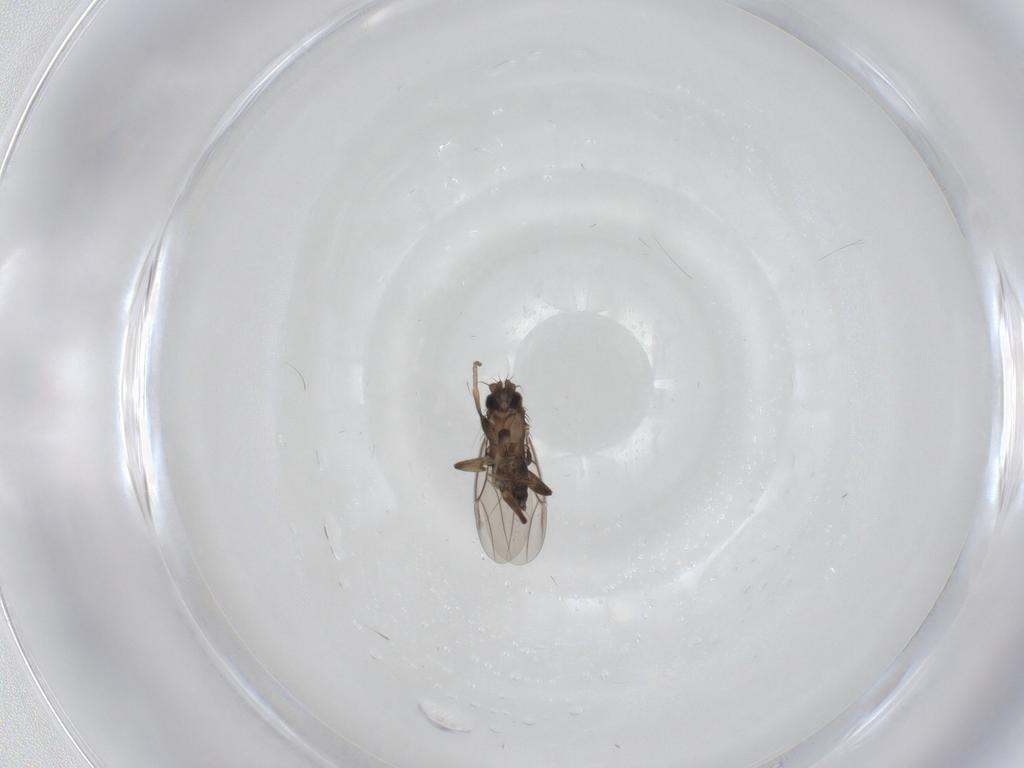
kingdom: Animalia
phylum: Arthropoda
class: Insecta
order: Diptera
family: Phoridae
